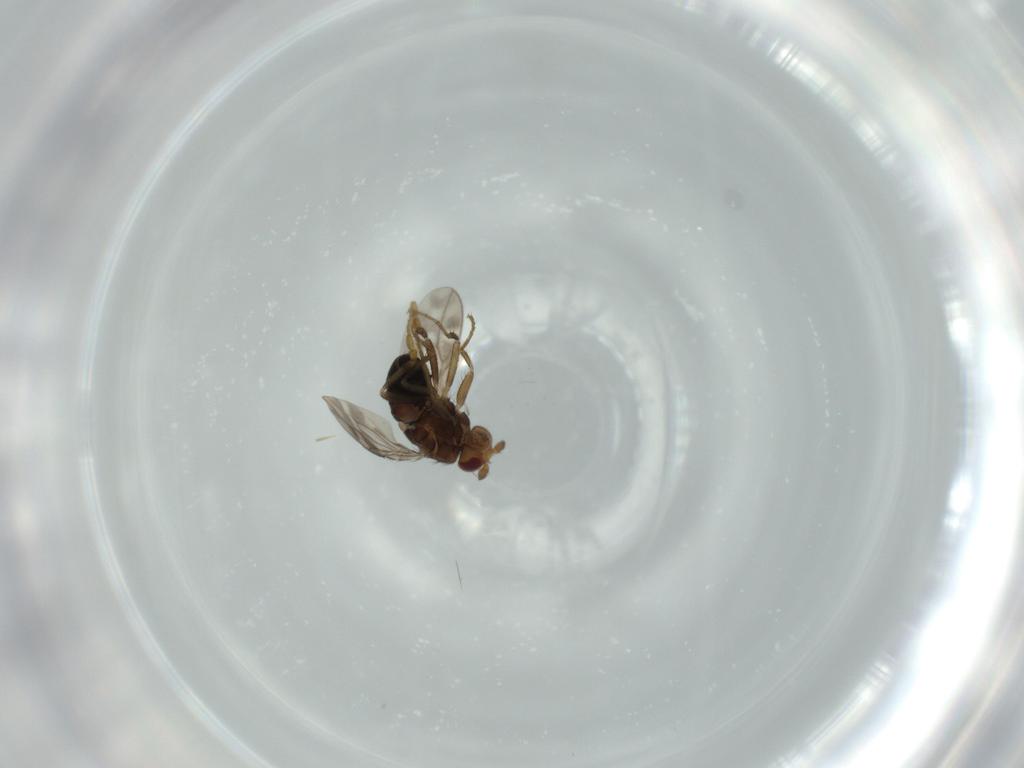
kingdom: Animalia
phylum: Arthropoda
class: Insecta
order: Diptera
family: Sphaeroceridae
